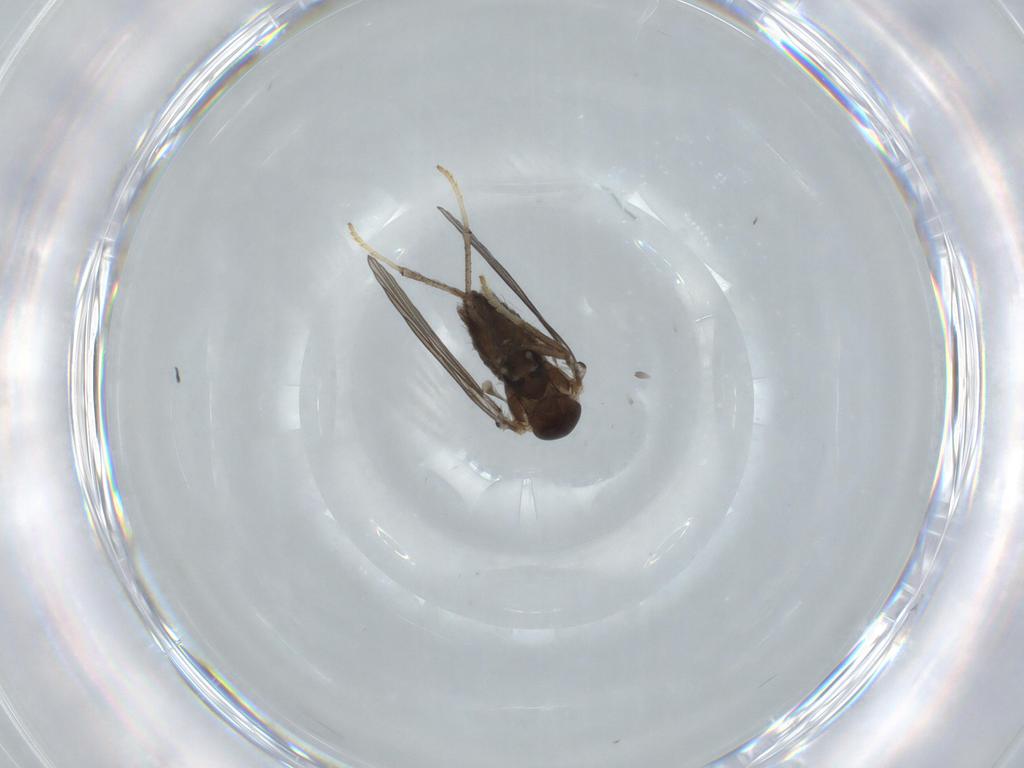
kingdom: Animalia
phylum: Arthropoda
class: Insecta
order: Diptera
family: Psychodidae
